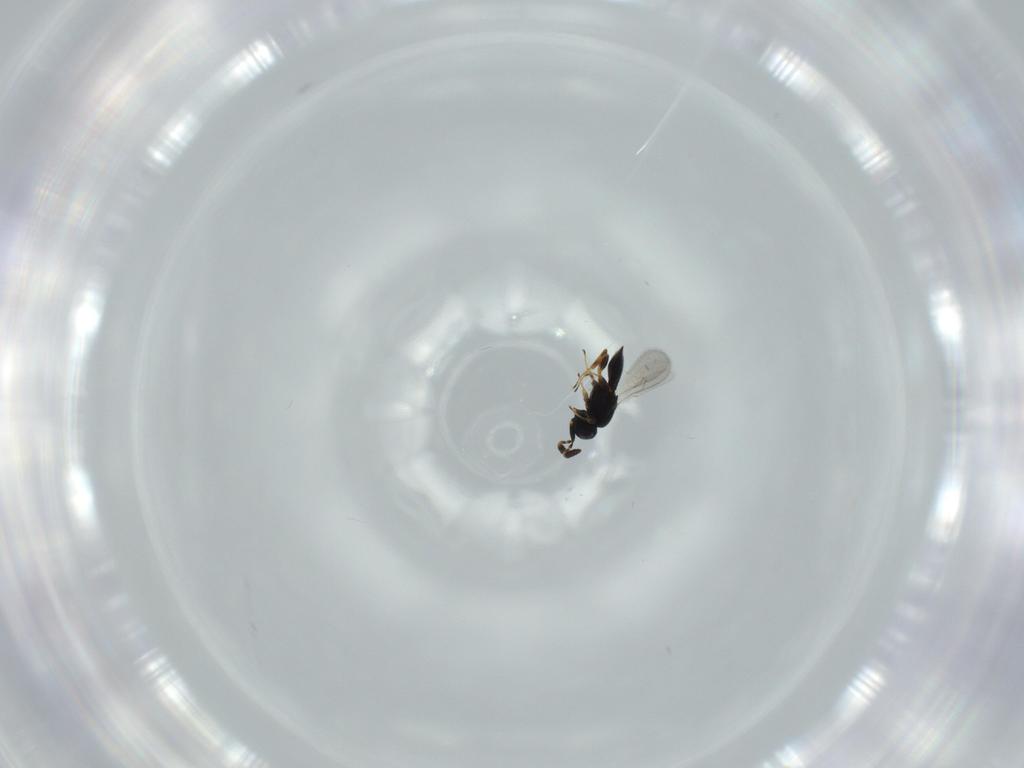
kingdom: Animalia
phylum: Arthropoda
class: Insecta
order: Hymenoptera
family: Scelionidae
